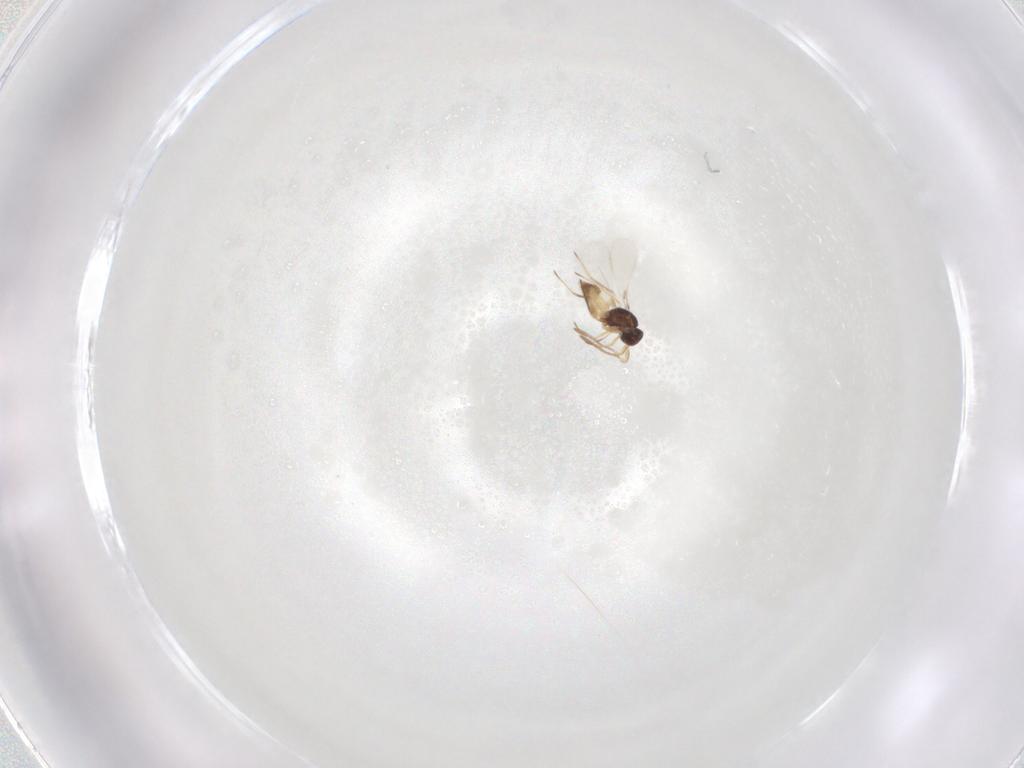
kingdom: Animalia
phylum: Arthropoda
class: Insecta
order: Hymenoptera
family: Mymaridae
